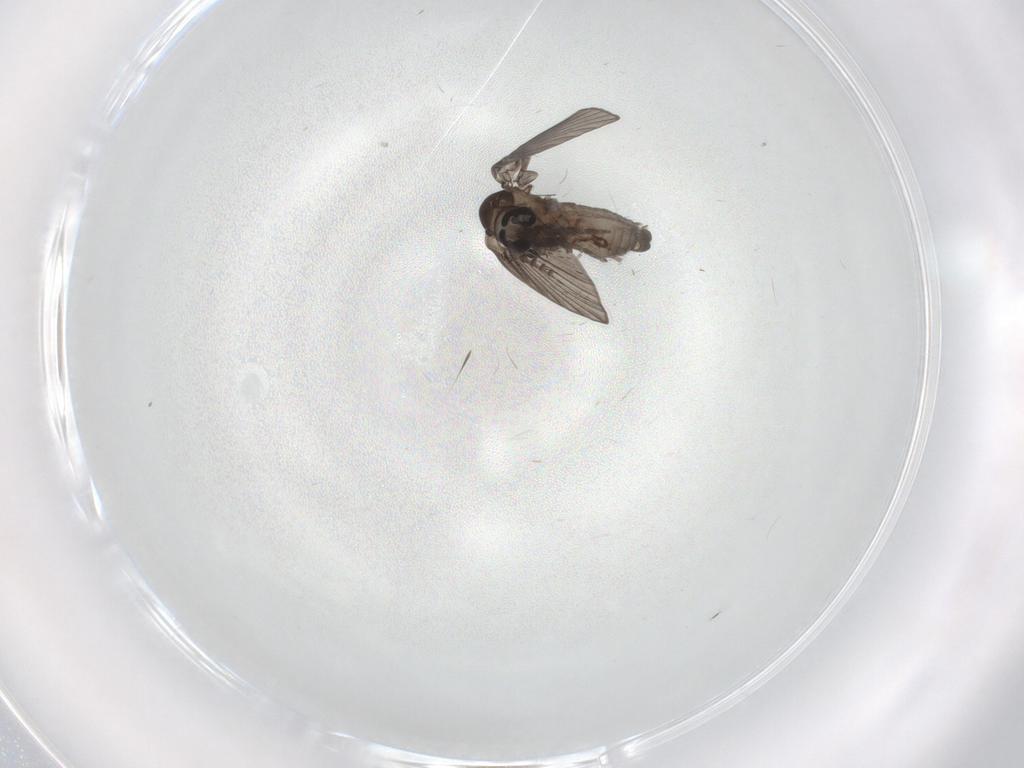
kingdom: Animalia
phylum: Arthropoda
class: Insecta
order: Diptera
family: Psychodidae
